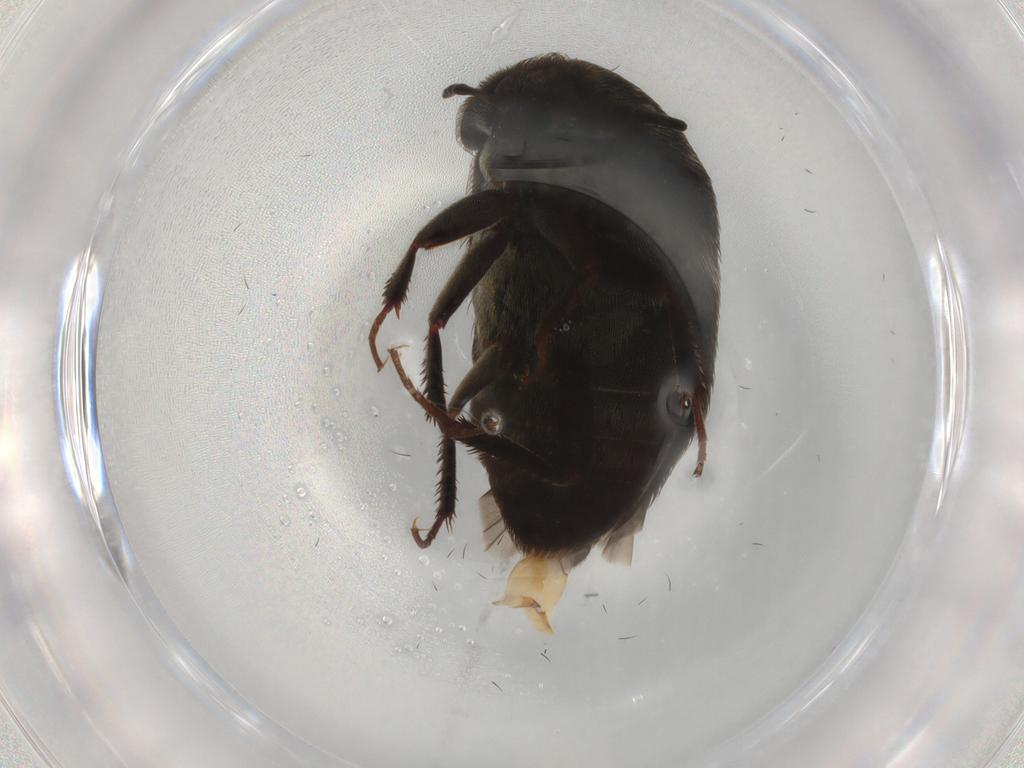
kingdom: Animalia
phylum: Arthropoda
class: Insecta
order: Coleoptera
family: Dermestidae
